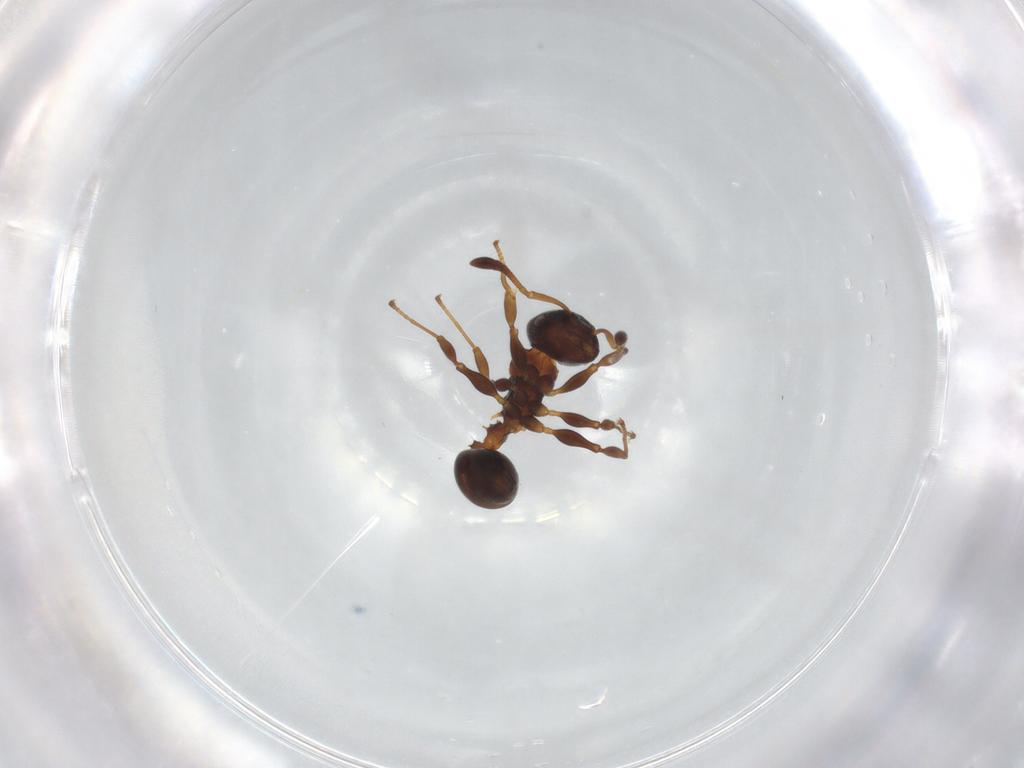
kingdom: Animalia
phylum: Arthropoda
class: Insecta
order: Hymenoptera
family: Formicidae
